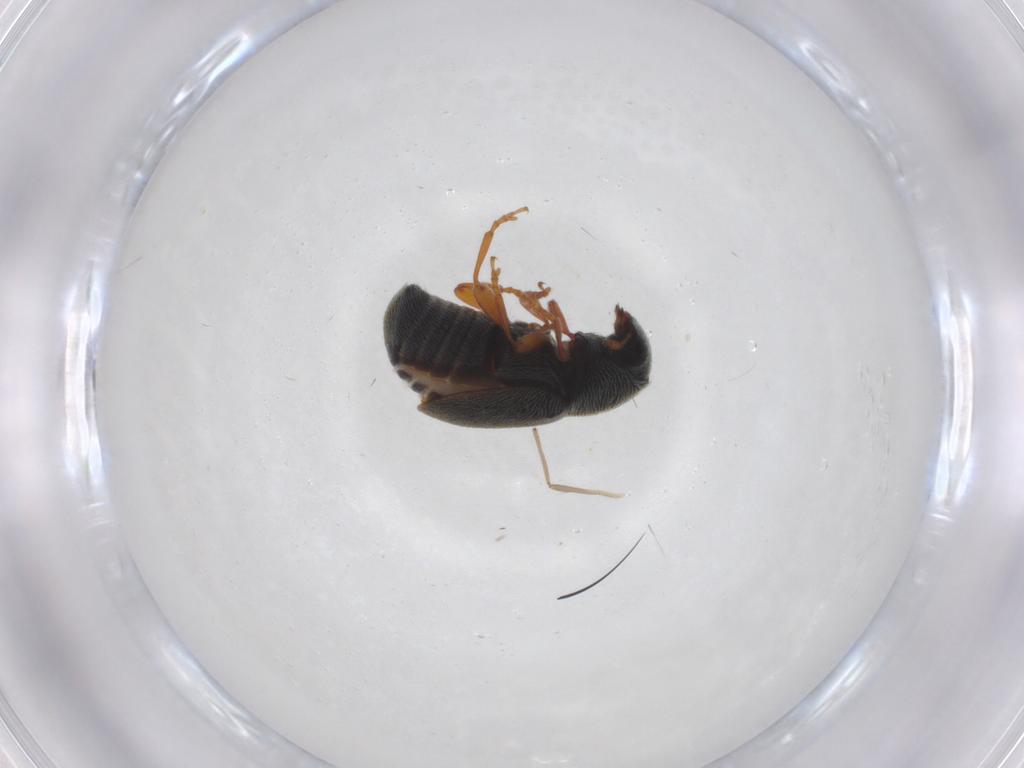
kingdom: Animalia
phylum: Arthropoda
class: Insecta
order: Coleoptera
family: Anthribidae
